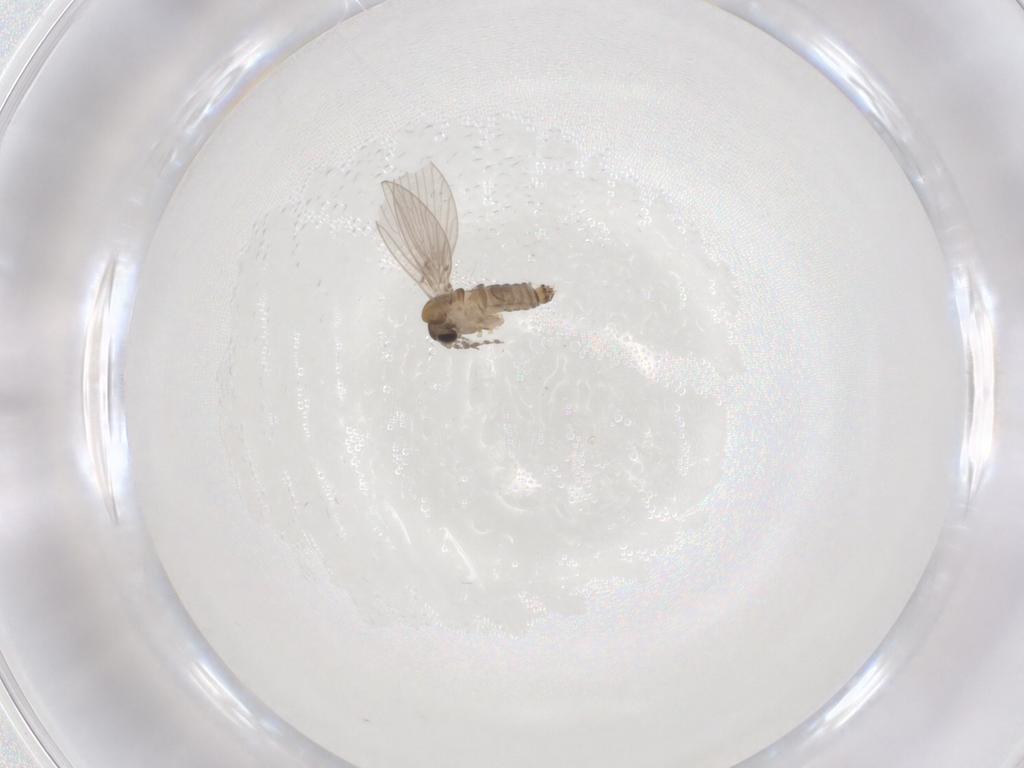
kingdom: Animalia
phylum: Arthropoda
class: Insecta
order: Diptera
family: Psychodidae
